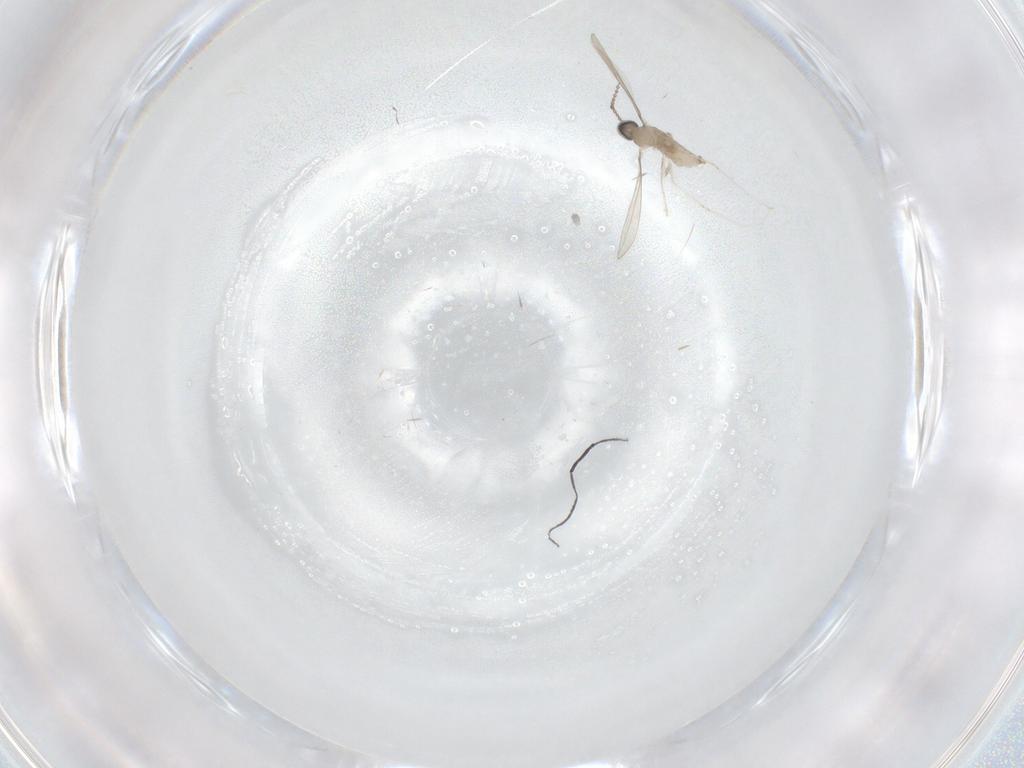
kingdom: Animalia
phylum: Arthropoda
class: Insecta
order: Diptera
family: Cecidomyiidae
